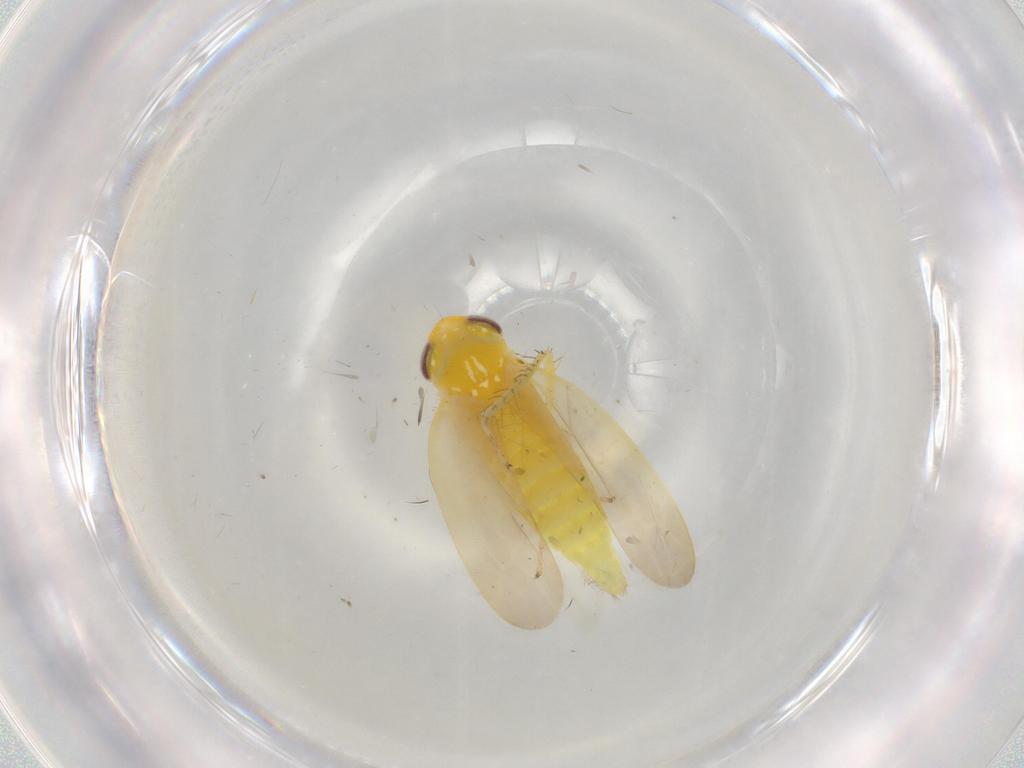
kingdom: Animalia
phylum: Arthropoda
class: Insecta
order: Hemiptera
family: Cicadellidae
